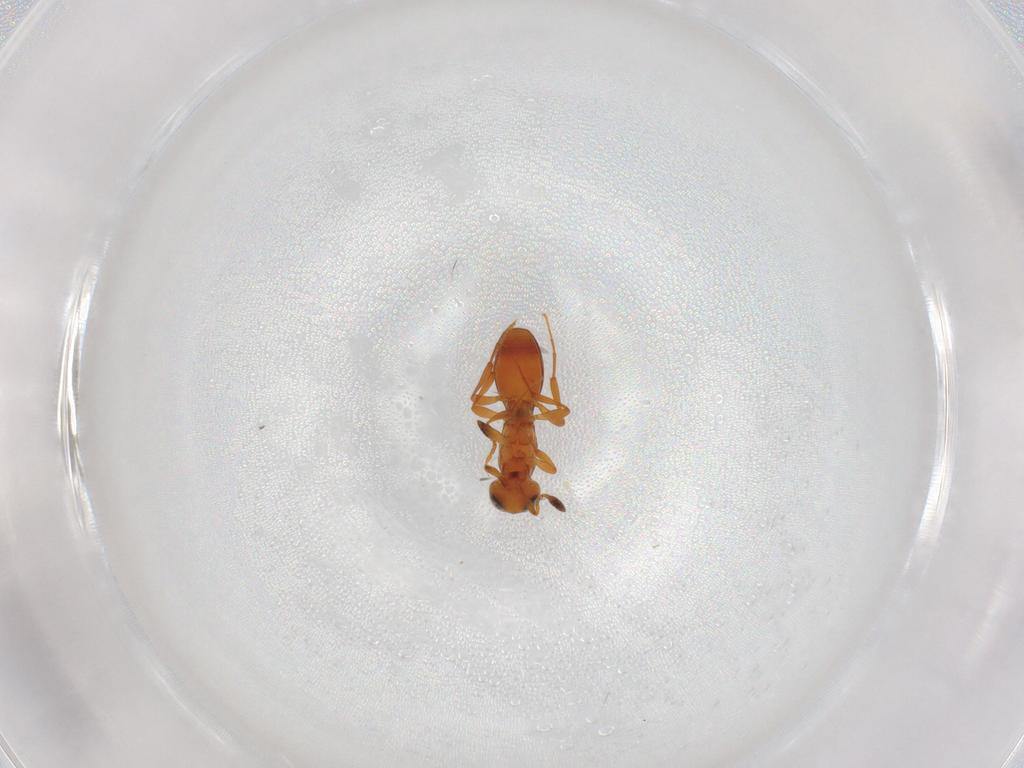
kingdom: Animalia
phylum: Arthropoda
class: Insecta
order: Hymenoptera
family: Platygastridae
